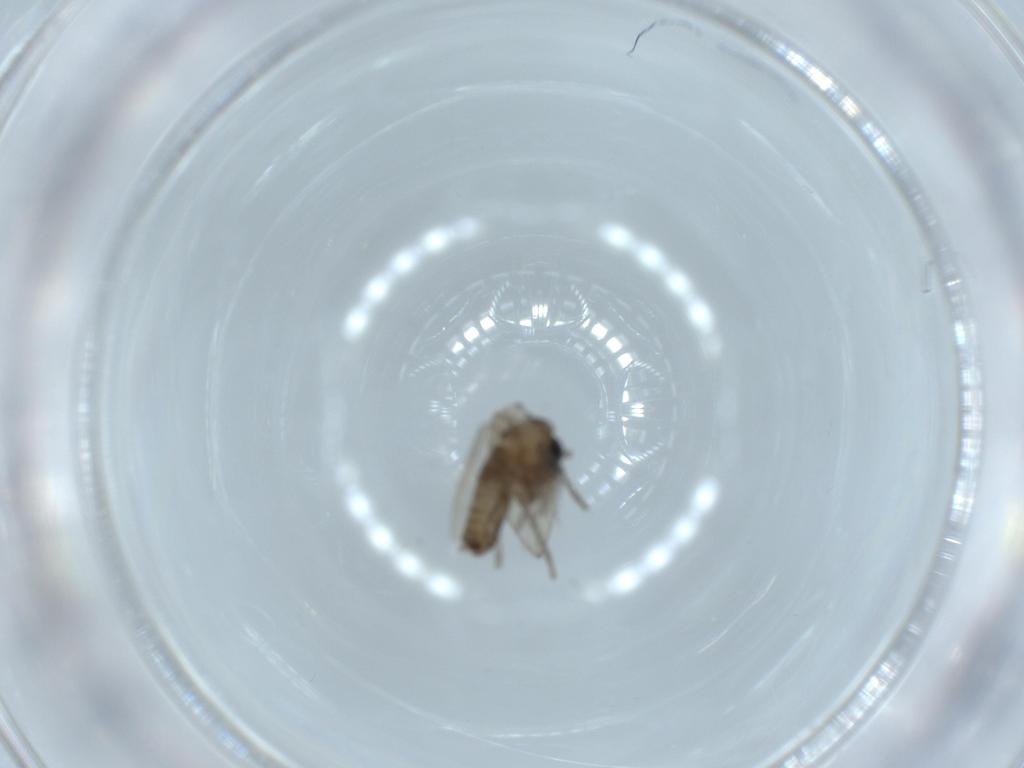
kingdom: Animalia
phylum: Arthropoda
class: Insecta
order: Diptera
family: Psychodidae
